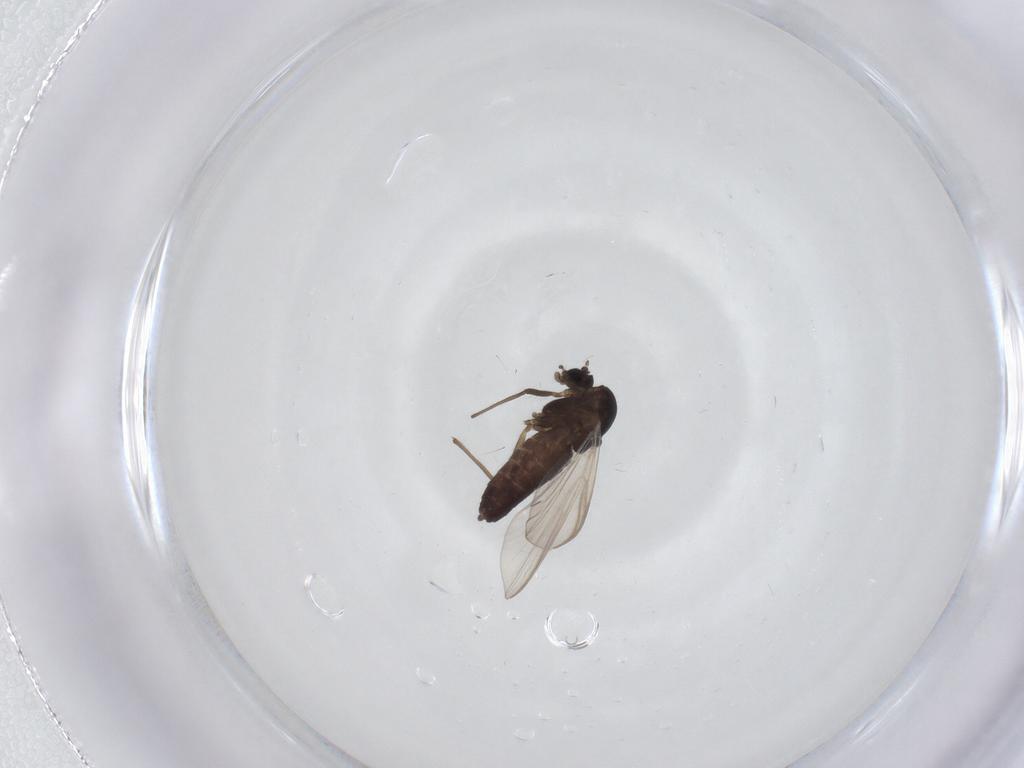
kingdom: Animalia
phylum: Arthropoda
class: Insecta
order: Diptera
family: Chironomidae
